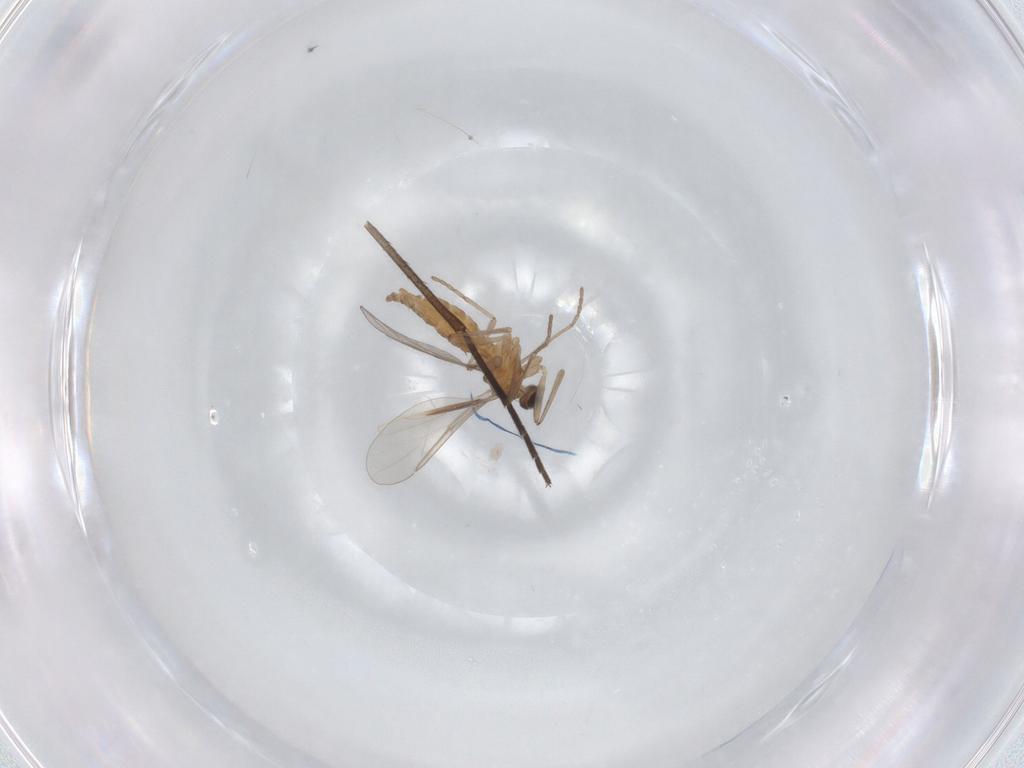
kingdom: Animalia
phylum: Arthropoda
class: Insecta
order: Diptera
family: Cecidomyiidae
